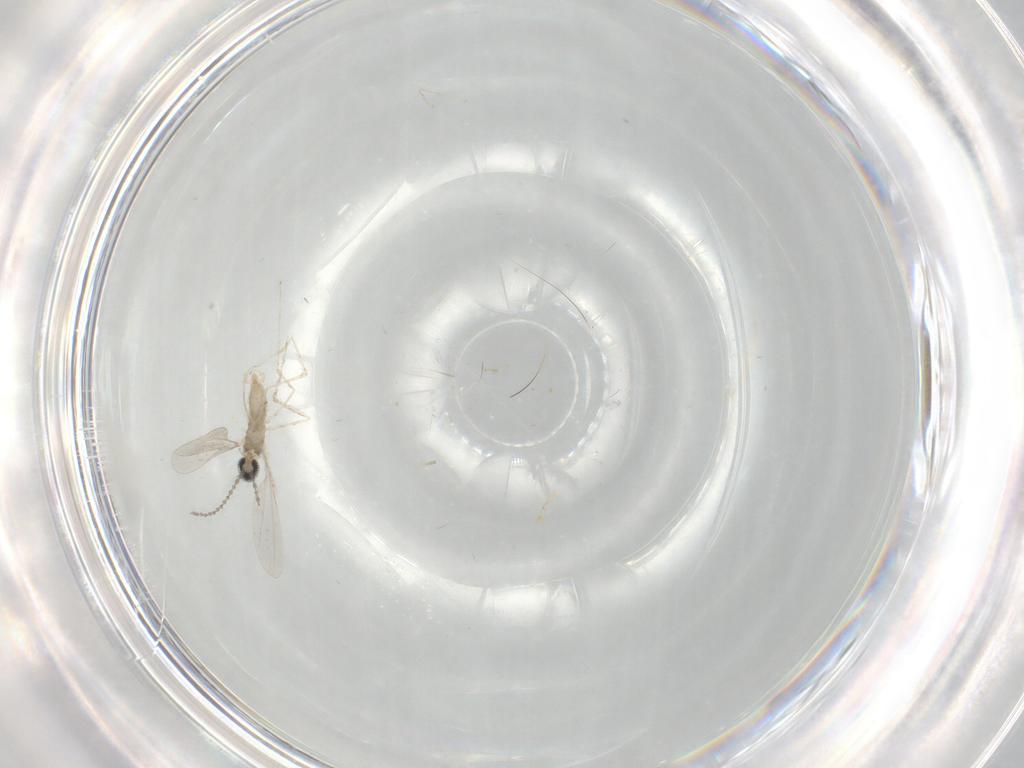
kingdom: Animalia
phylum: Arthropoda
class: Insecta
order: Diptera
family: Cecidomyiidae
